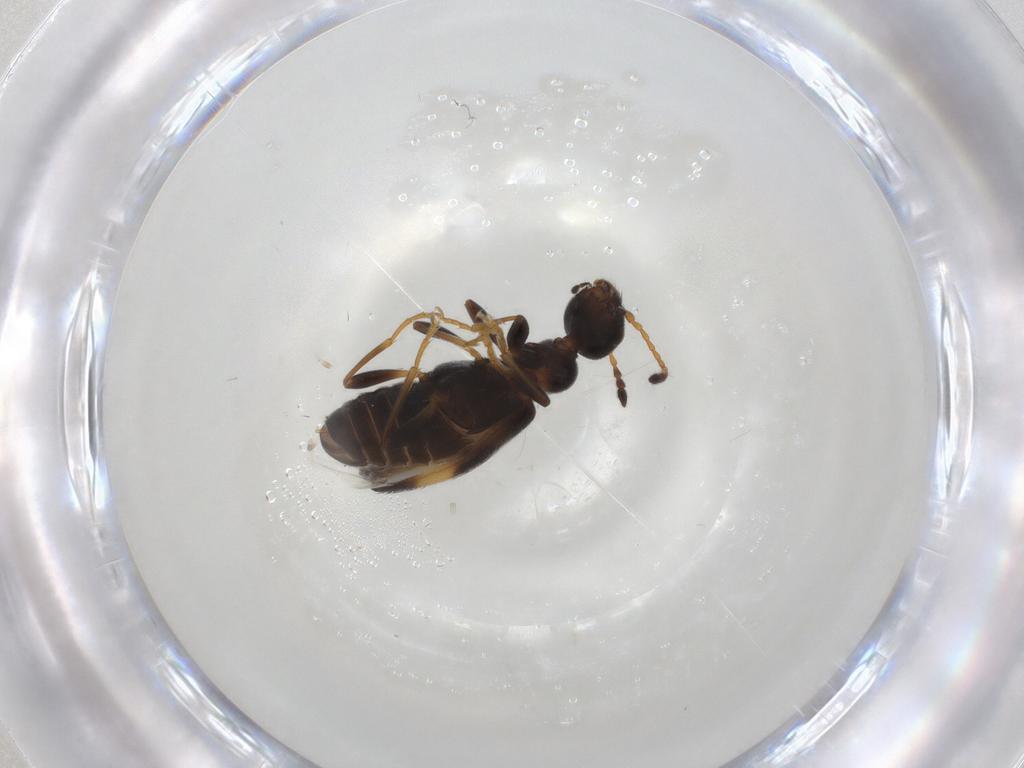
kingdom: Animalia
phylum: Arthropoda
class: Insecta
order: Coleoptera
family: Anthicidae
